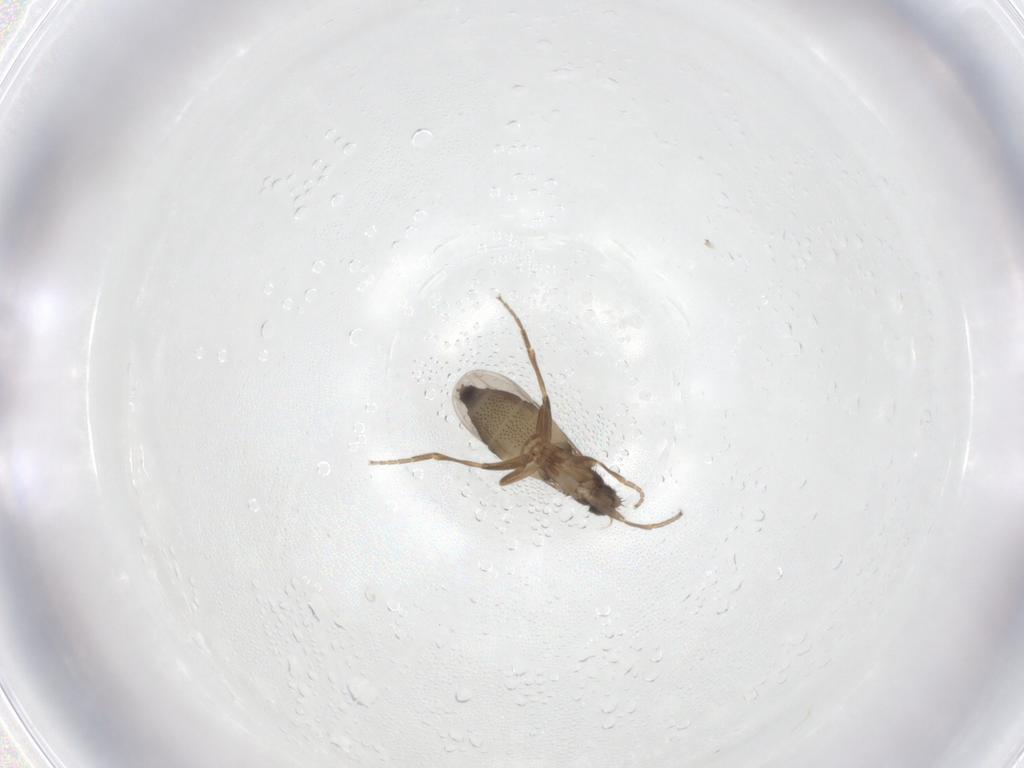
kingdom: Animalia
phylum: Arthropoda
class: Insecta
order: Diptera
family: Phoridae
